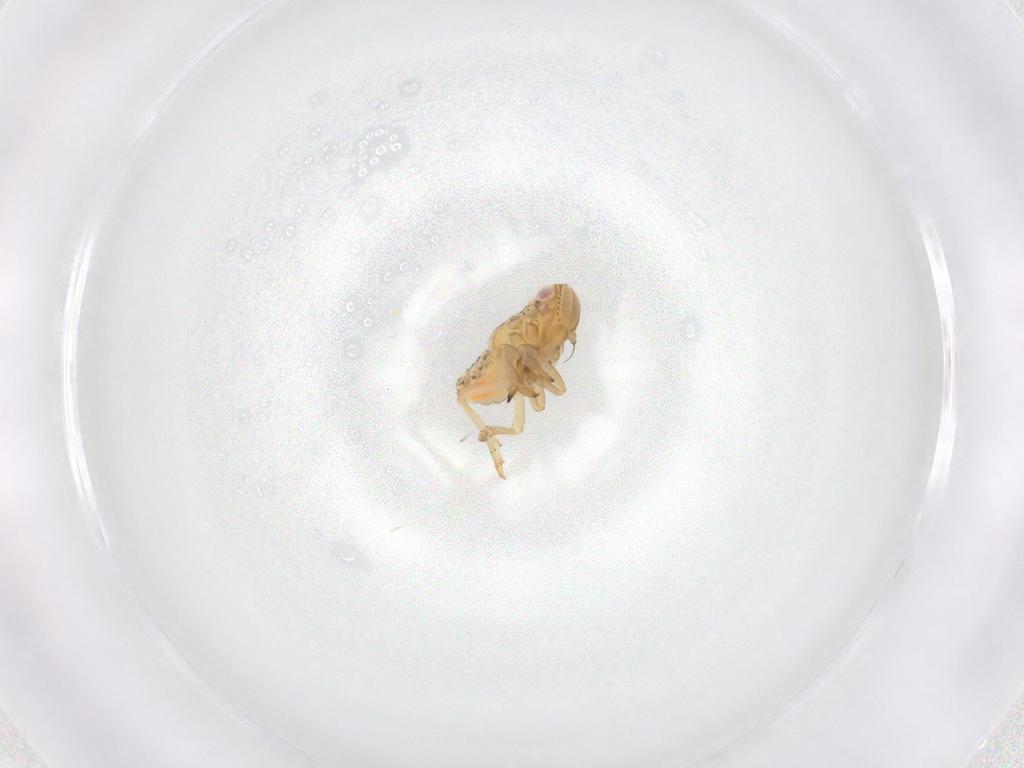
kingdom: Animalia
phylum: Arthropoda
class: Insecta
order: Hemiptera
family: Tropiduchidae
